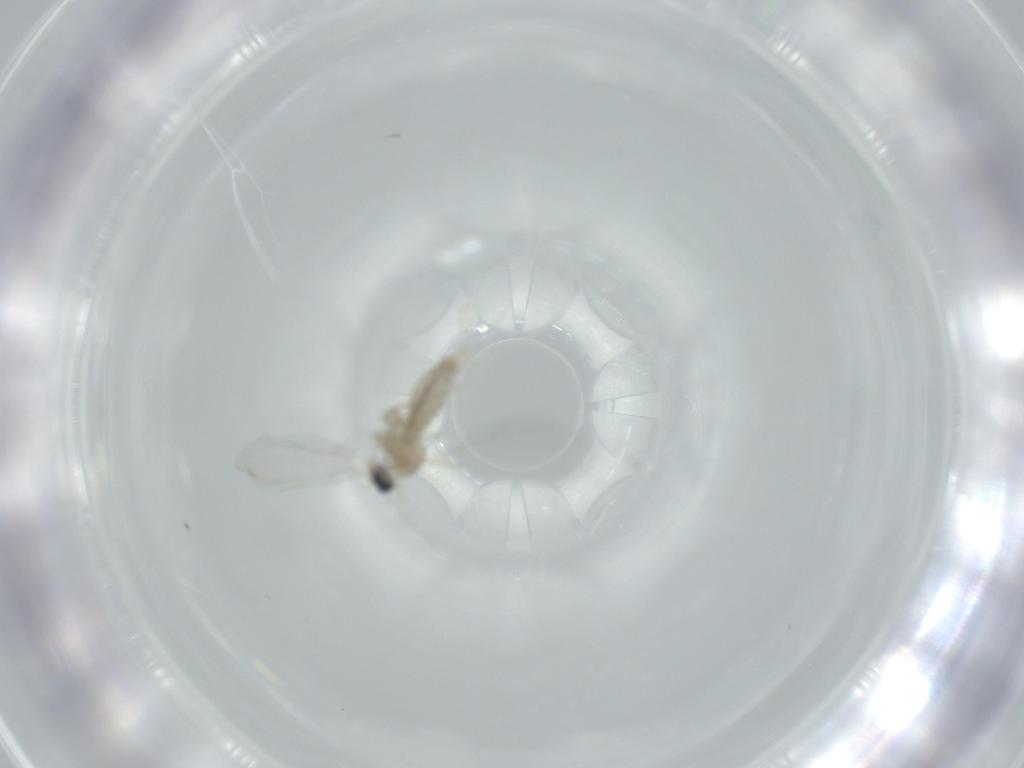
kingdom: Animalia
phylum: Arthropoda
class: Insecta
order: Diptera
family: Cecidomyiidae
